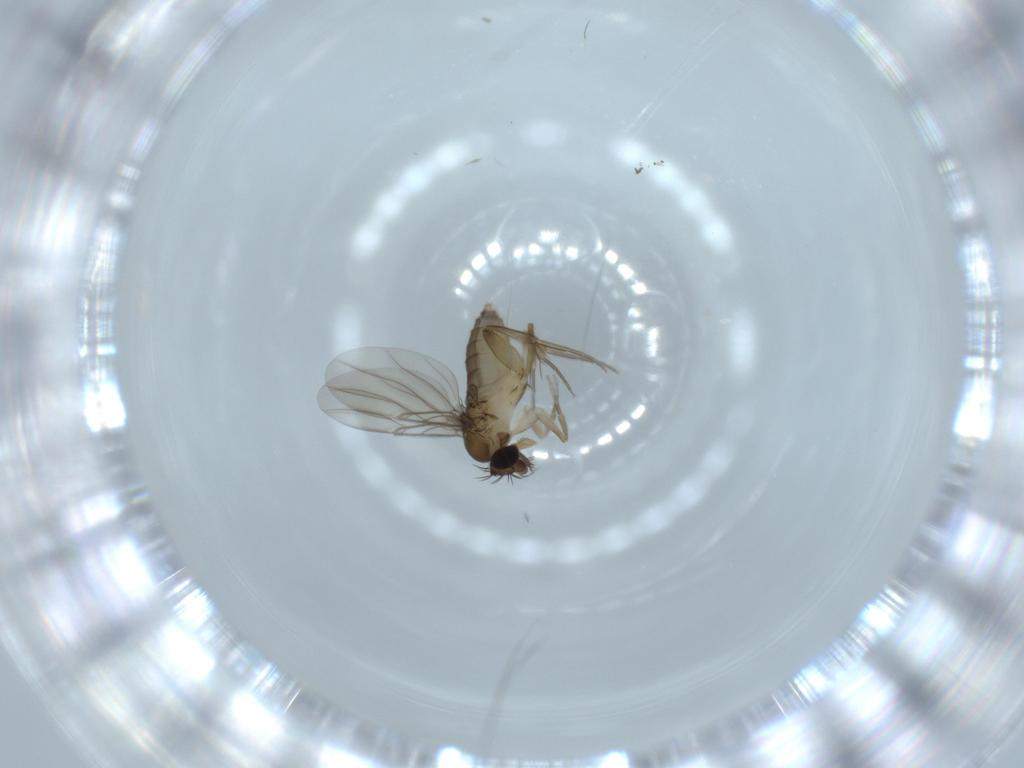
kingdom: Animalia
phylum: Arthropoda
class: Insecta
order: Diptera
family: Phoridae
